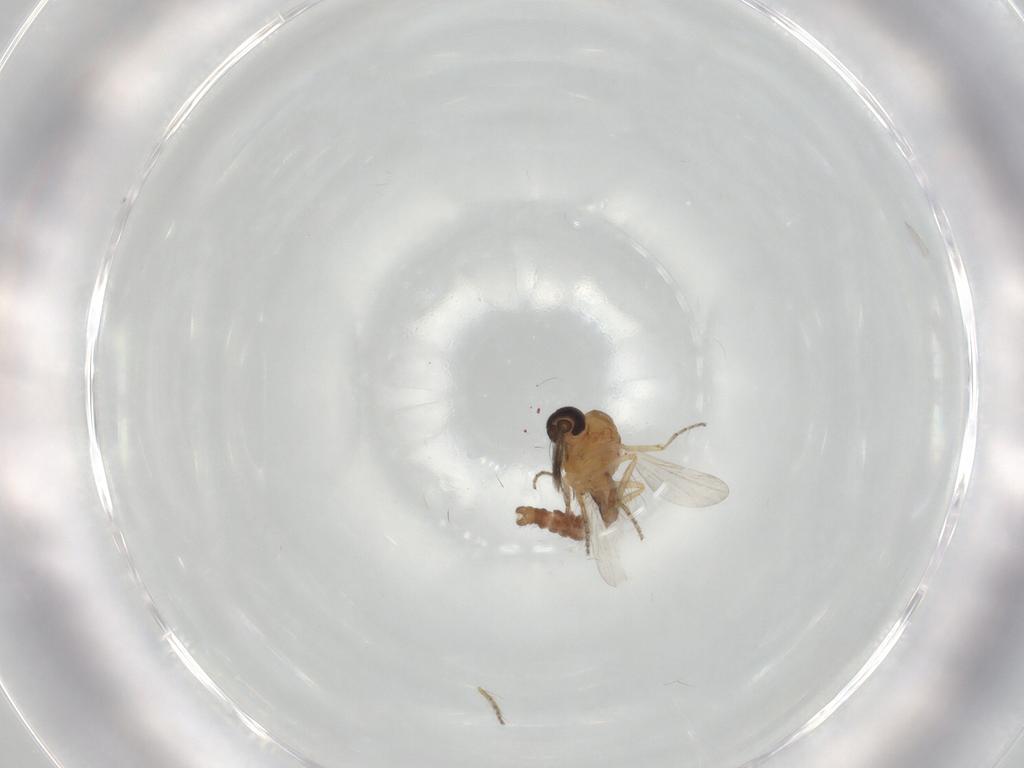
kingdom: Animalia
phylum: Arthropoda
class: Insecta
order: Diptera
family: Ceratopogonidae
